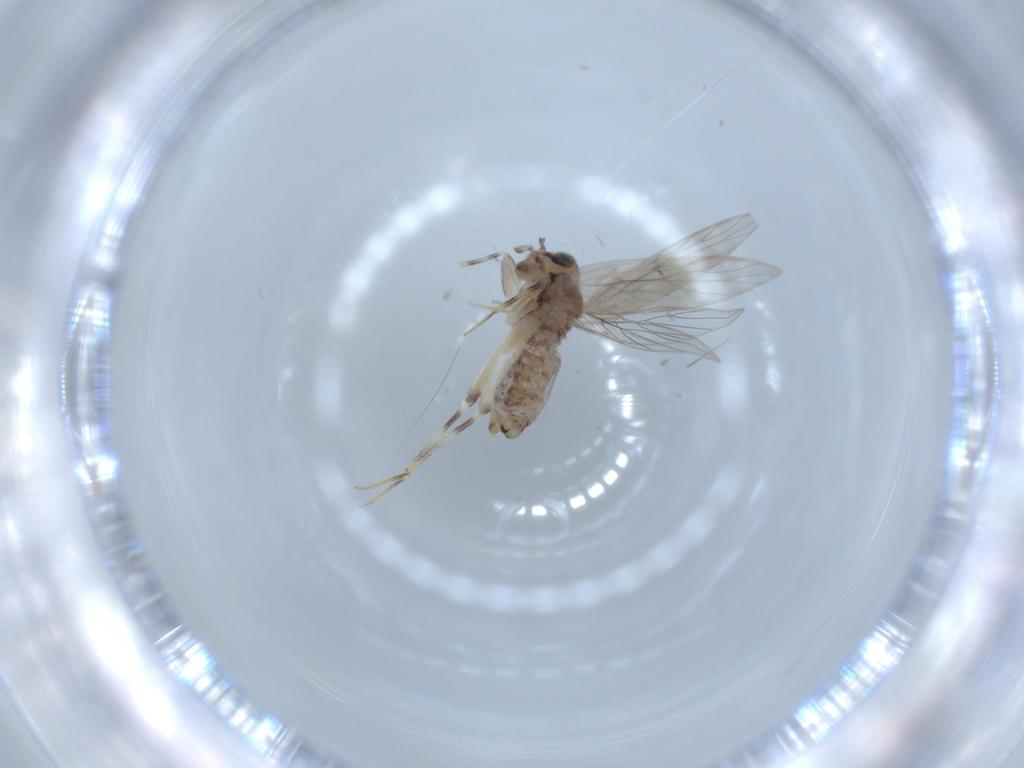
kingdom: Animalia
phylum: Arthropoda
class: Insecta
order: Psocodea
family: Lepidopsocidae
